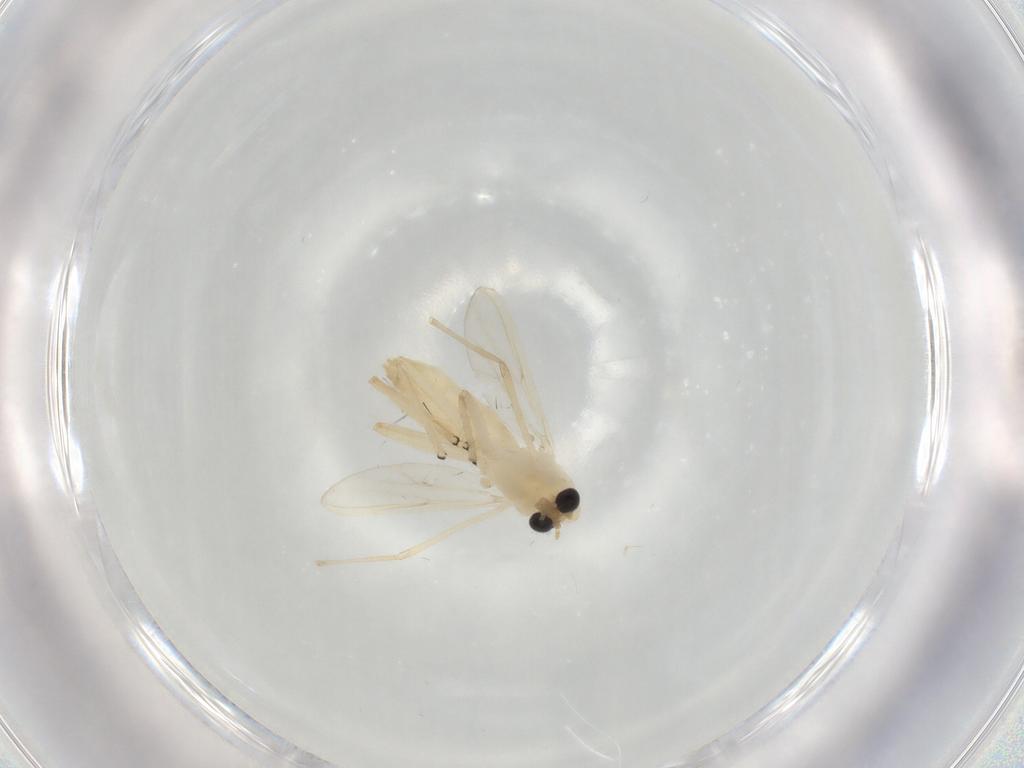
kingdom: Animalia
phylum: Arthropoda
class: Insecta
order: Diptera
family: Chironomidae
